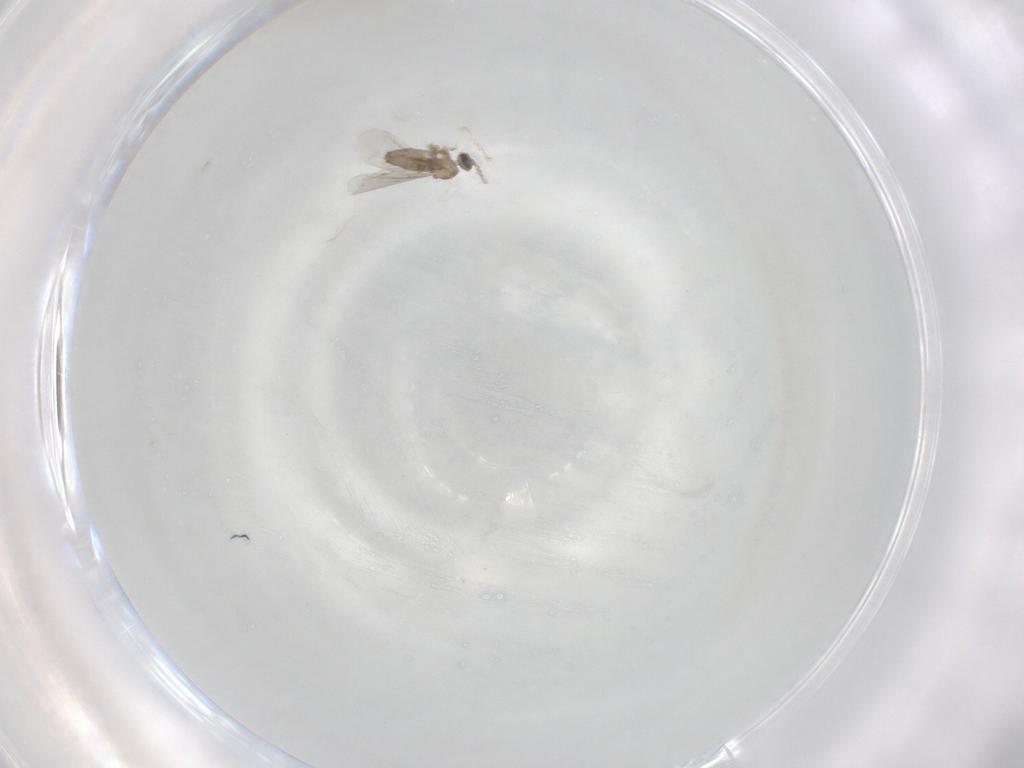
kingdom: Animalia
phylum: Arthropoda
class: Insecta
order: Diptera
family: Cecidomyiidae
